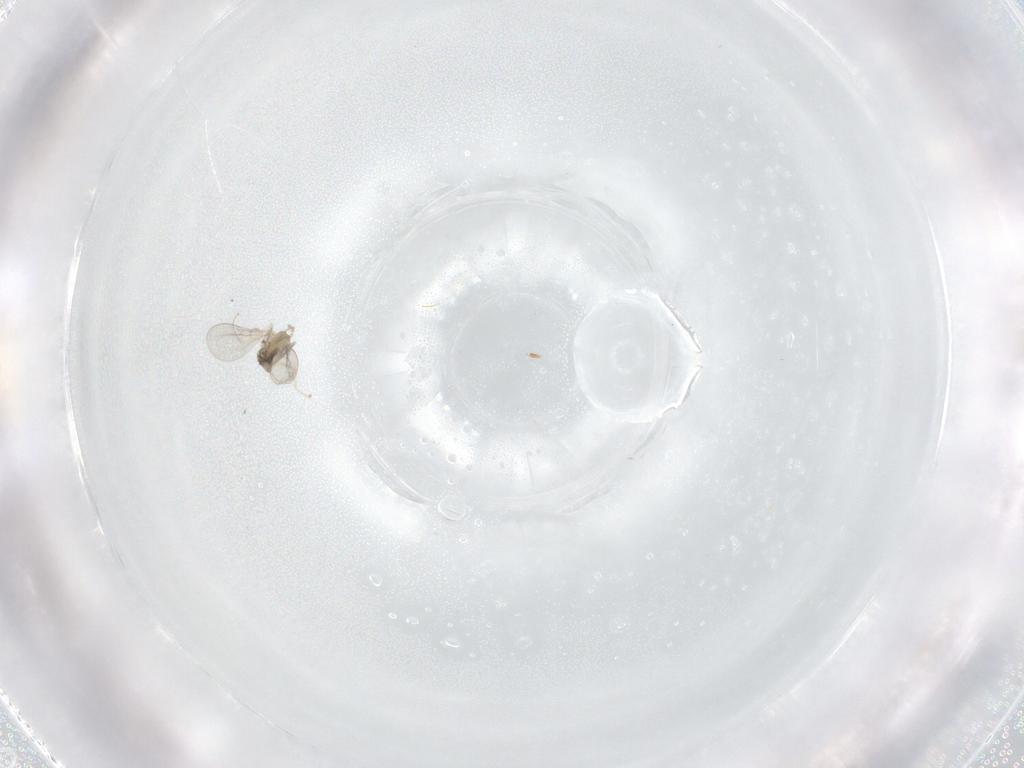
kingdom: Animalia
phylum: Arthropoda
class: Insecta
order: Diptera
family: Cecidomyiidae
